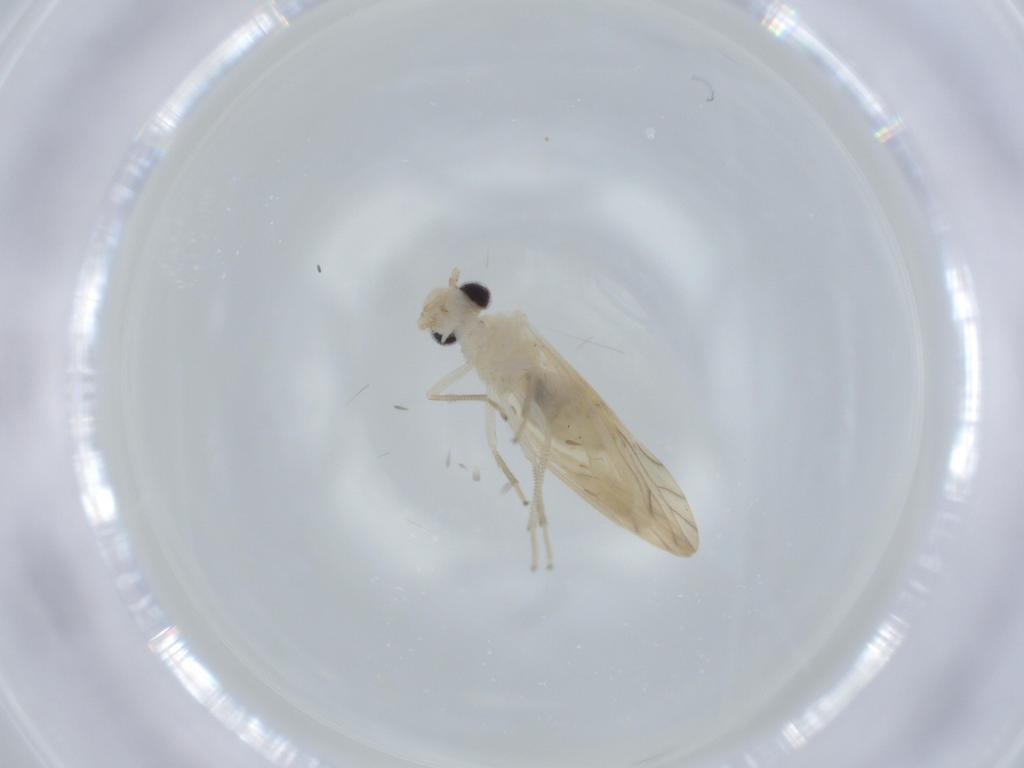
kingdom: Animalia
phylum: Arthropoda
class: Insecta
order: Psocodea
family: Caeciliusidae
